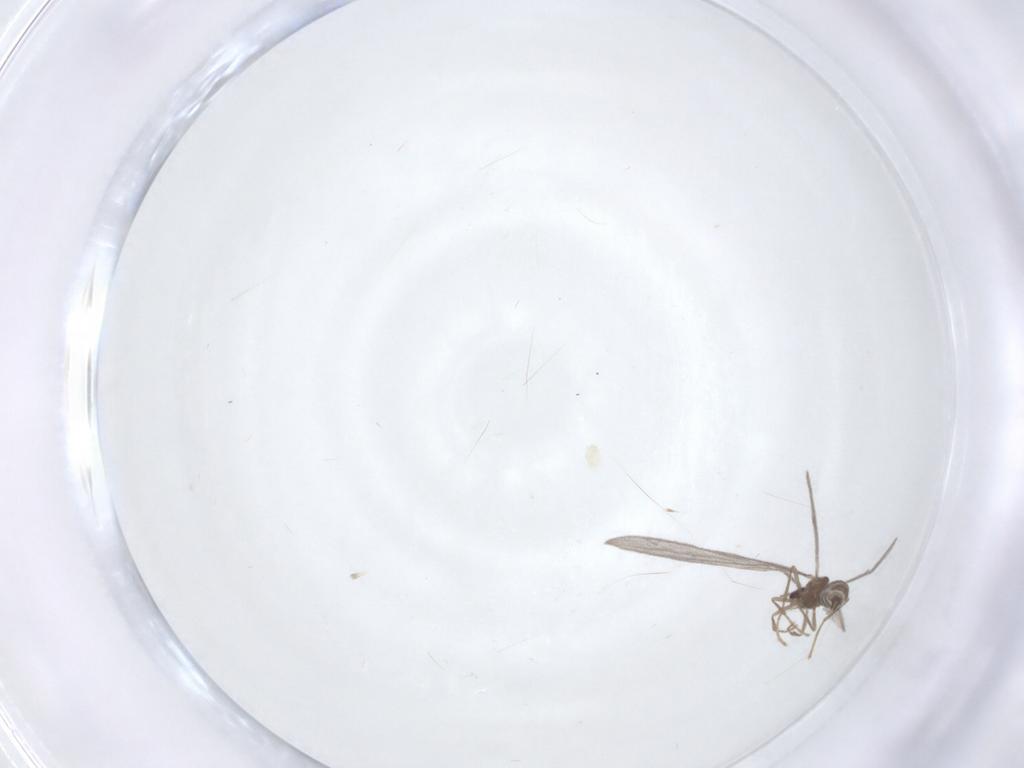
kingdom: Animalia
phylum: Arthropoda
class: Insecta
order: Hymenoptera
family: Formicidae
